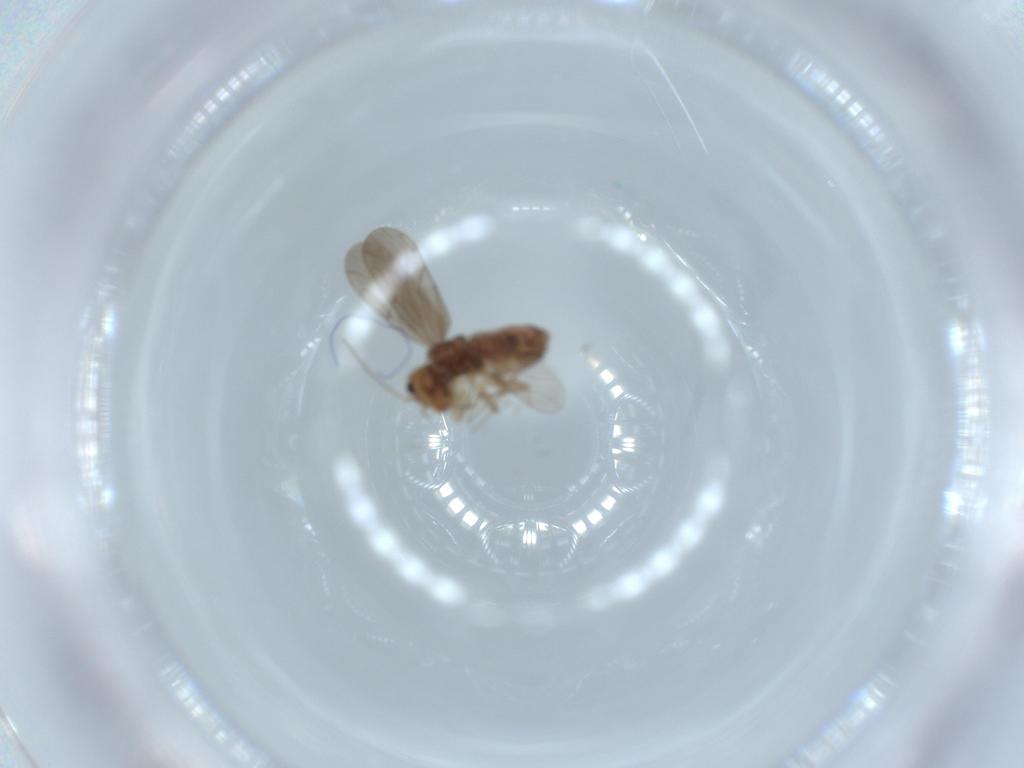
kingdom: Animalia
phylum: Arthropoda
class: Insecta
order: Psocodea
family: Ectopsocidae
